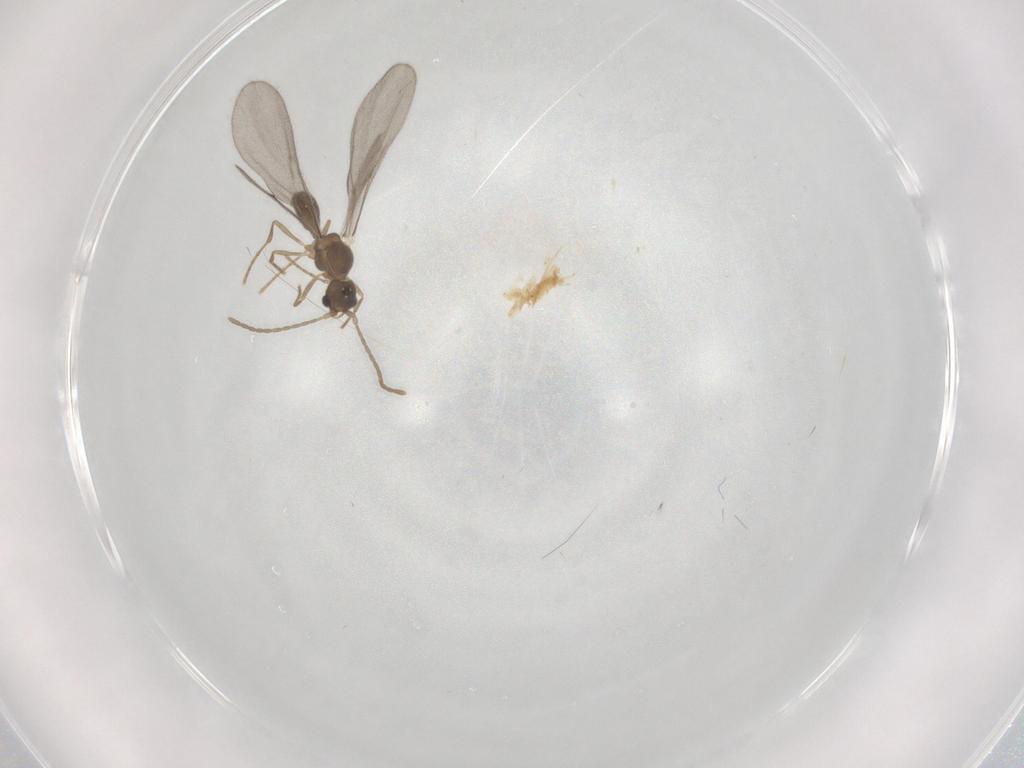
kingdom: Animalia
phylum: Arthropoda
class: Insecta
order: Hymenoptera
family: Formicidae
